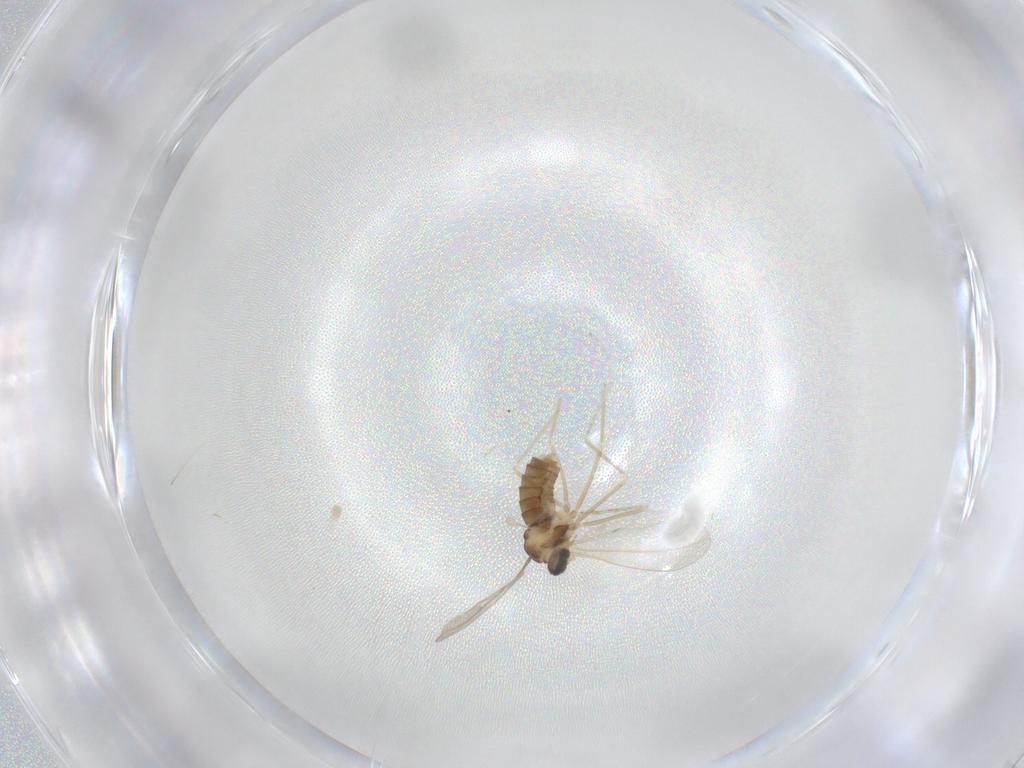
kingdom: Animalia
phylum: Arthropoda
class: Insecta
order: Diptera
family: Cecidomyiidae
